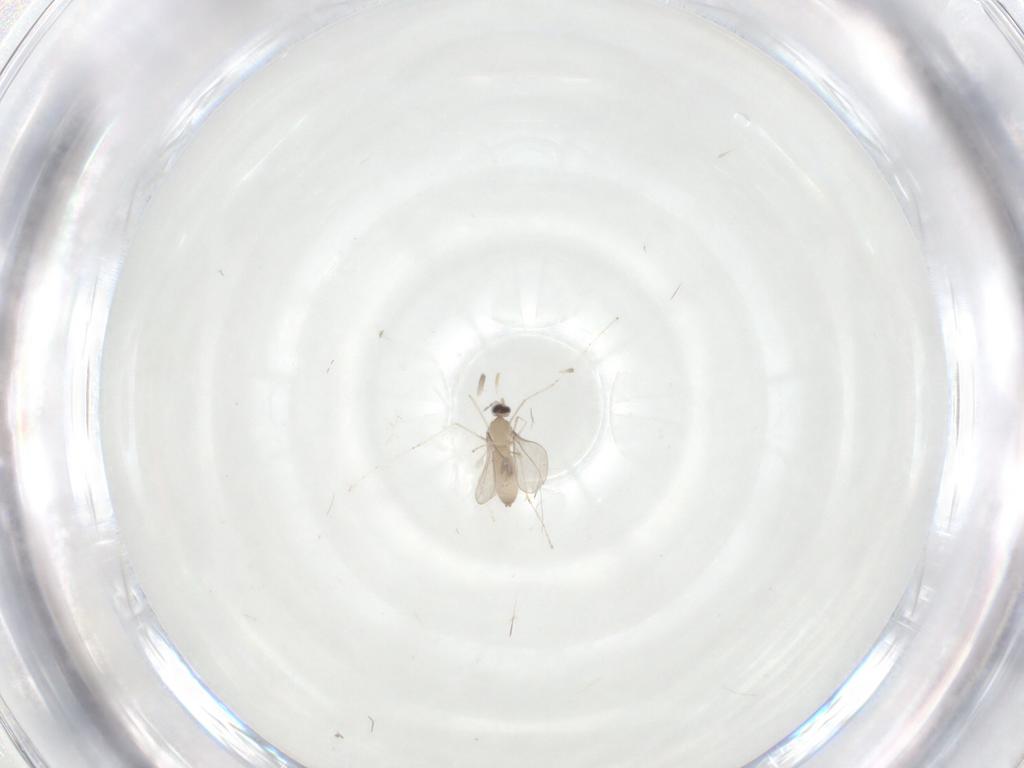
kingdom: Animalia
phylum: Arthropoda
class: Insecta
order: Diptera
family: Cecidomyiidae
